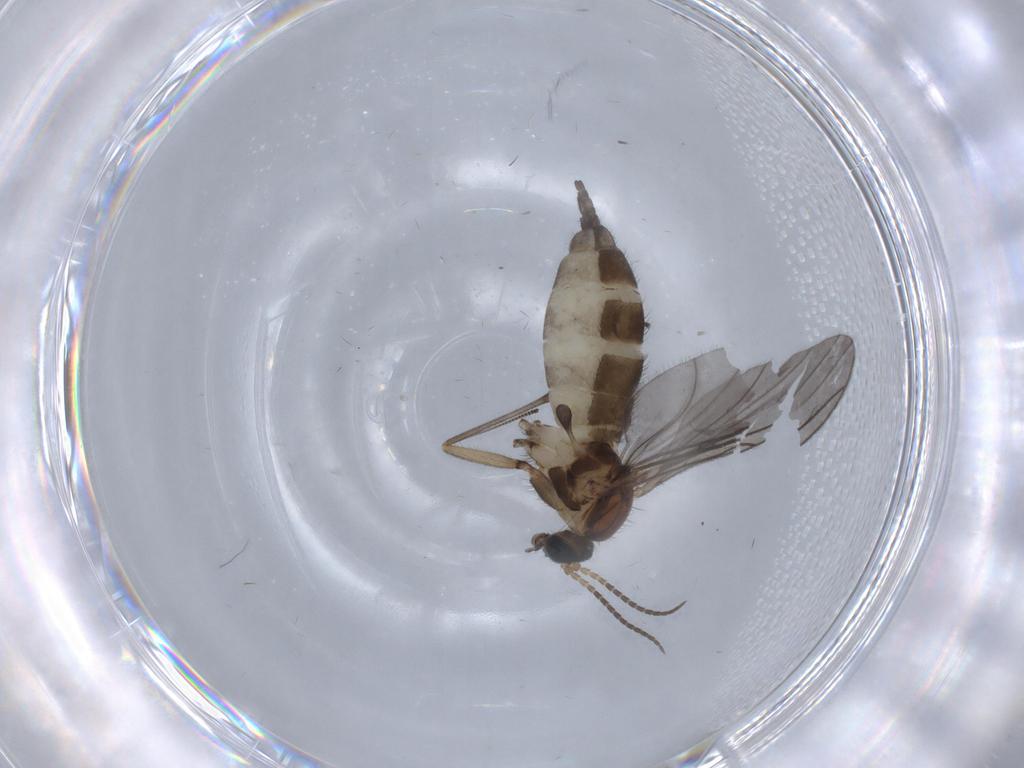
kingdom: Animalia
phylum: Arthropoda
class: Insecta
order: Diptera
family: Sciaridae
